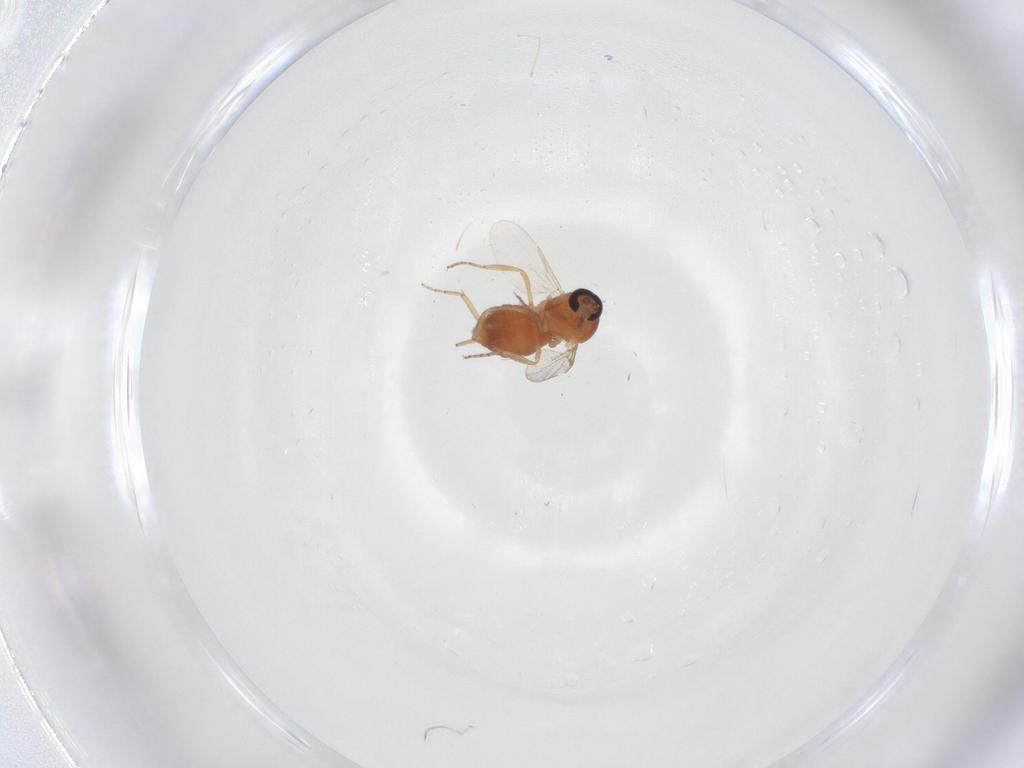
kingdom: Animalia
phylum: Arthropoda
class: Insecta
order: Diptera
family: Psychodidae
